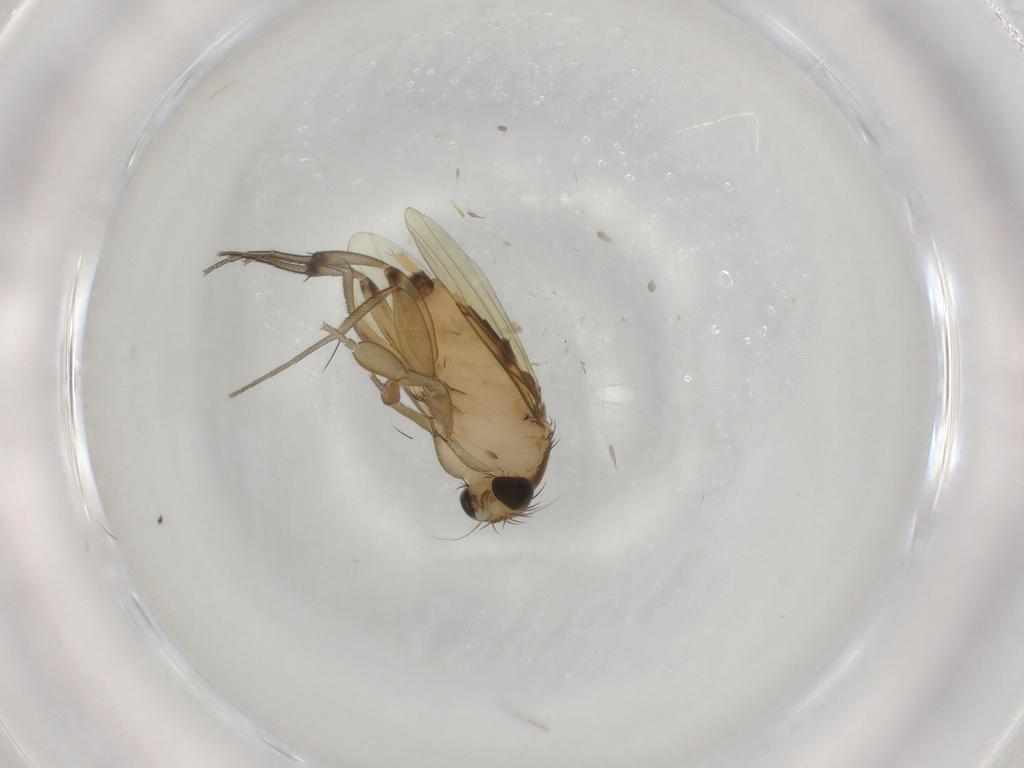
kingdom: Animalia
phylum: Arthropoda
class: Insecta
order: Diptera
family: Phoridae
